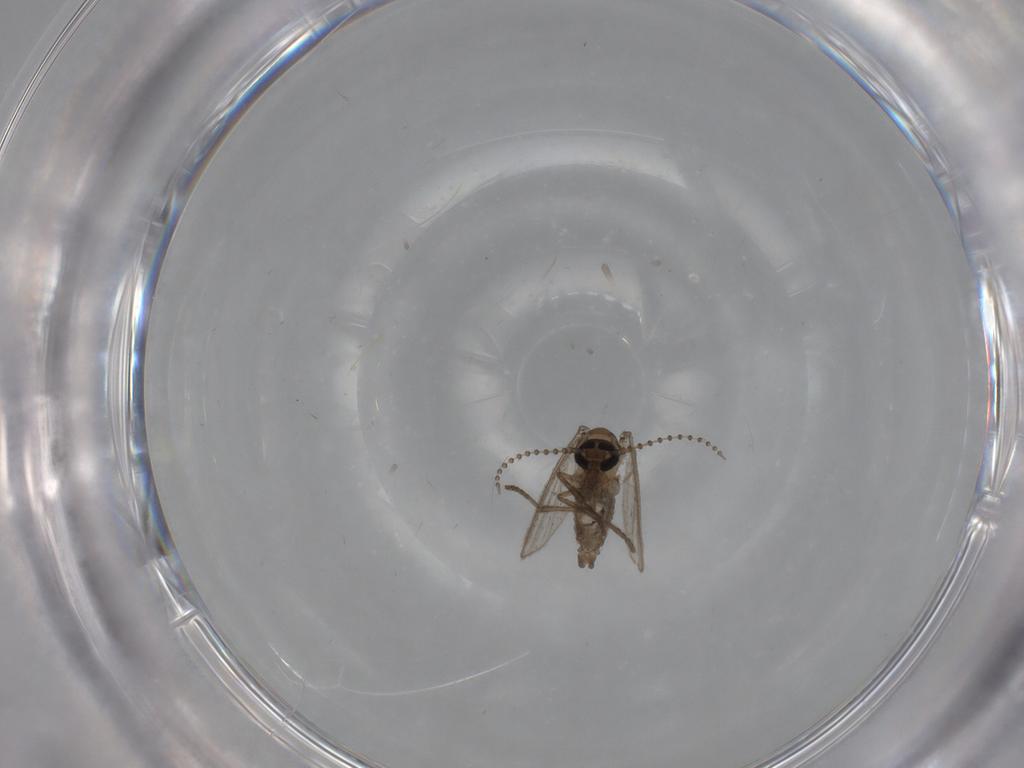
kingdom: Animalia
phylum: Arthropoda
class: Insecta
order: Diptera
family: Psychodidae
